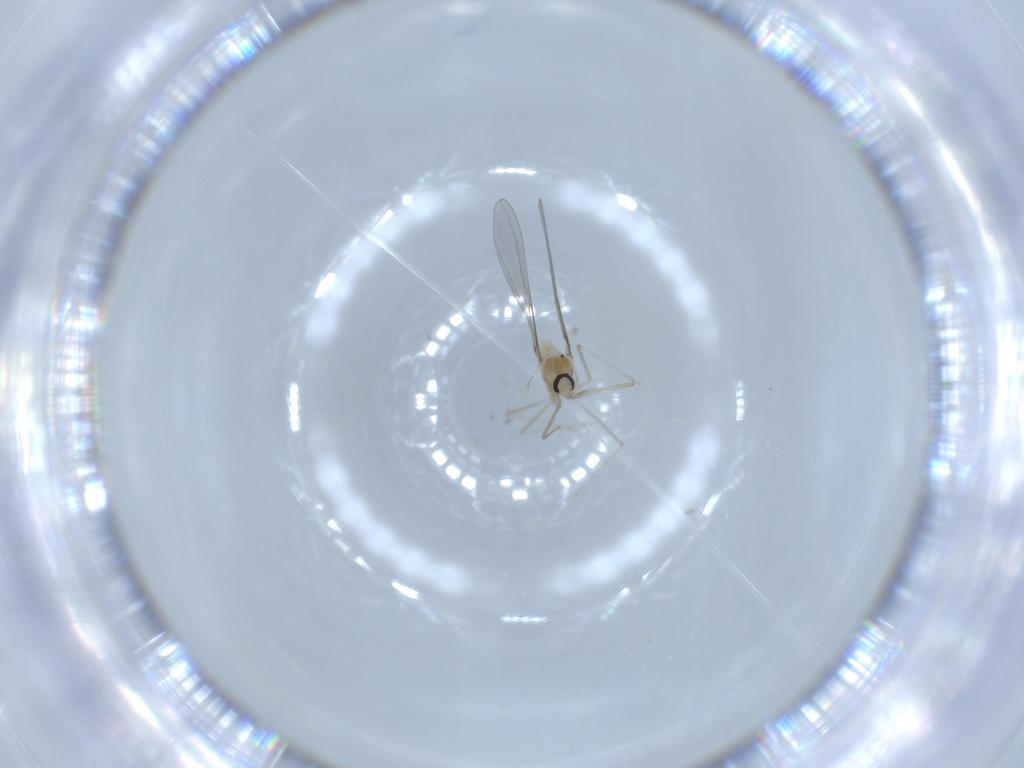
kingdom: Animalia
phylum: Arthropoda
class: Insecta
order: Diptera
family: Cecidomyiidae
